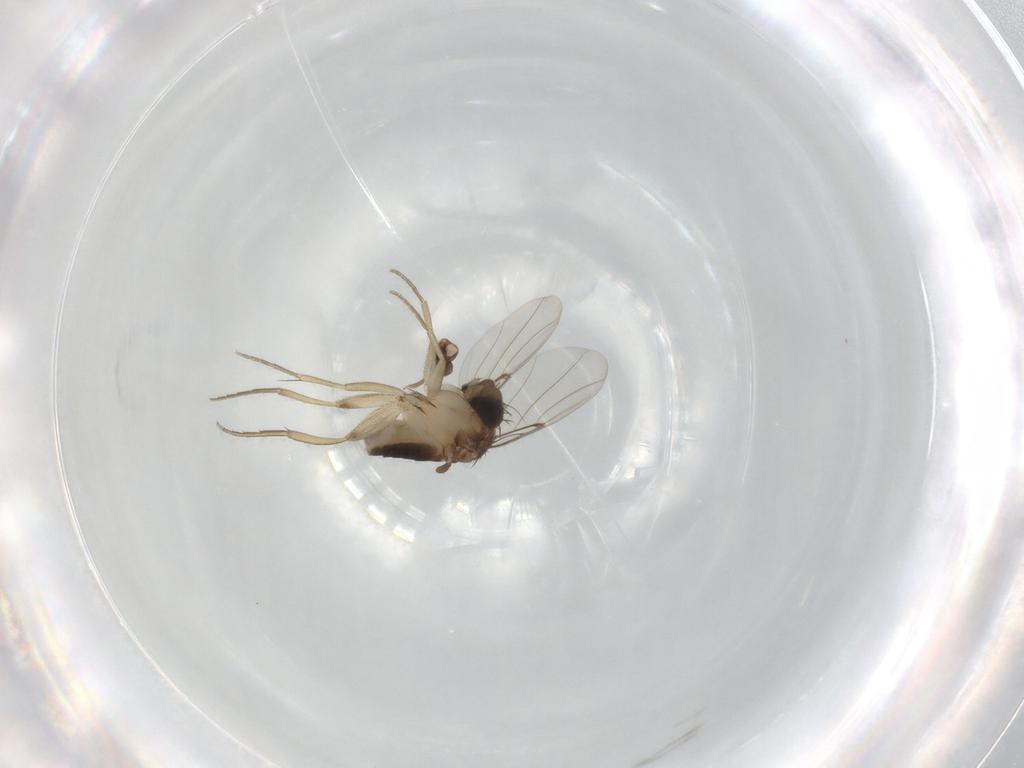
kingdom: Animalia
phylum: Arthropoda
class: Insecta
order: Diptera
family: Phoridae
